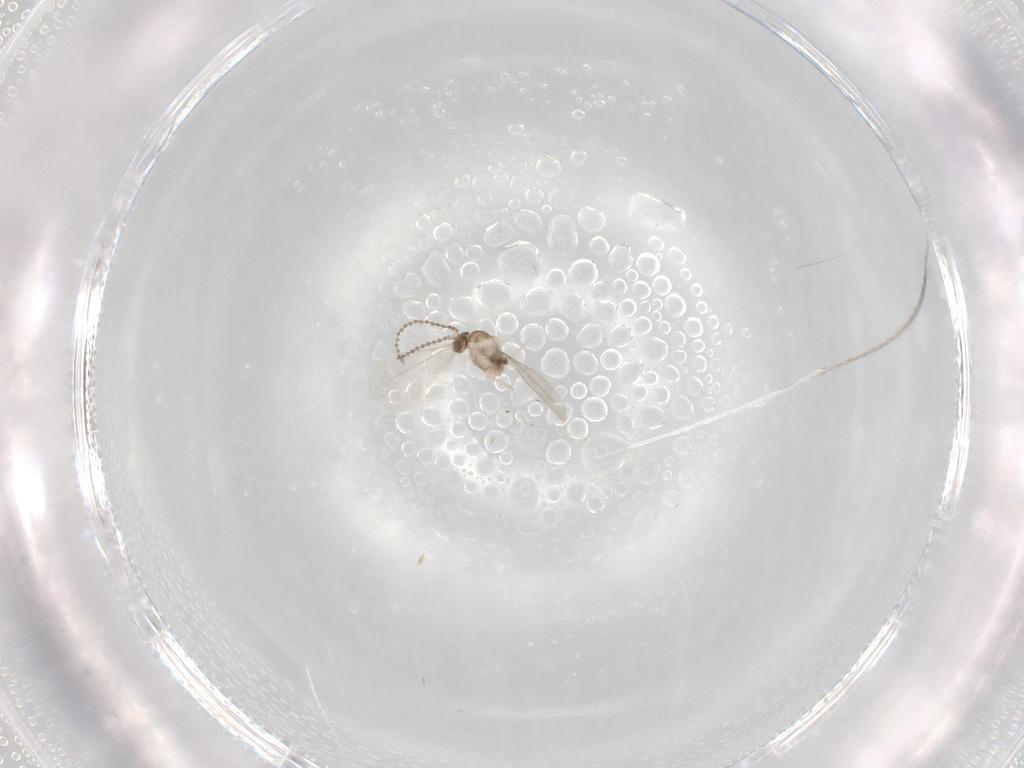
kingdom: Animalia
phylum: Arthropoda
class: Insecta
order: Diptera
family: Cecidomyiidae
